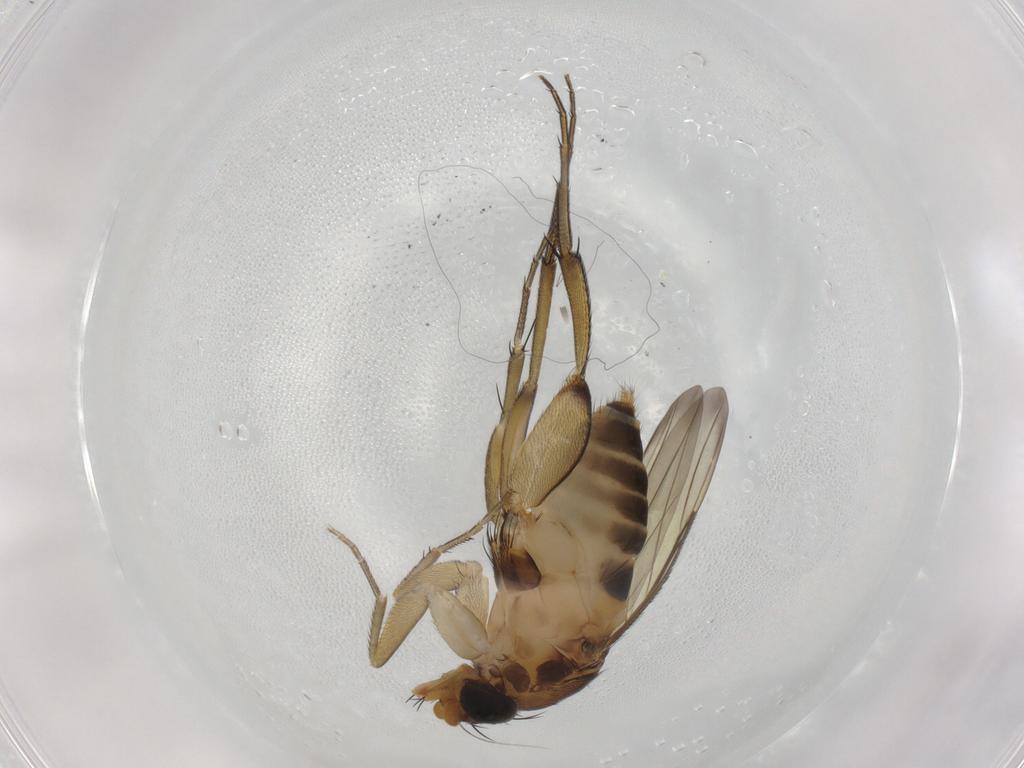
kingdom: Animalia
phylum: Arthropoda
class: Insecta
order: Diptera
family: Phoridae
